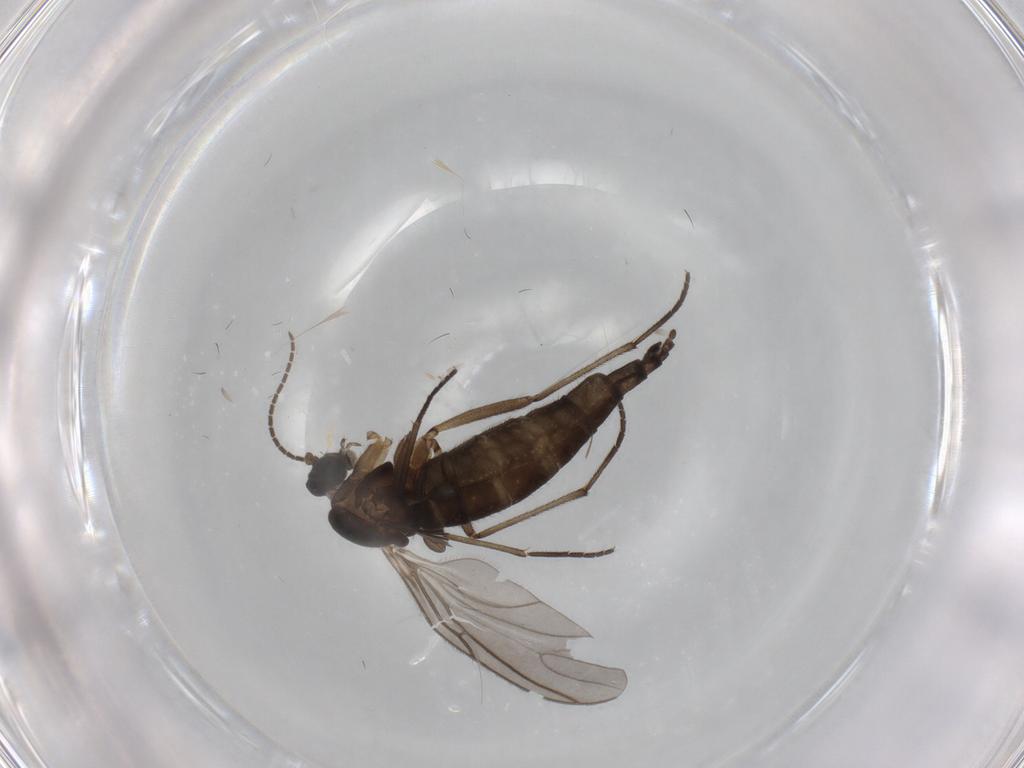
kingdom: Animalia
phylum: Arthropoda
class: Insecta
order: Diptera
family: Sciaridae
